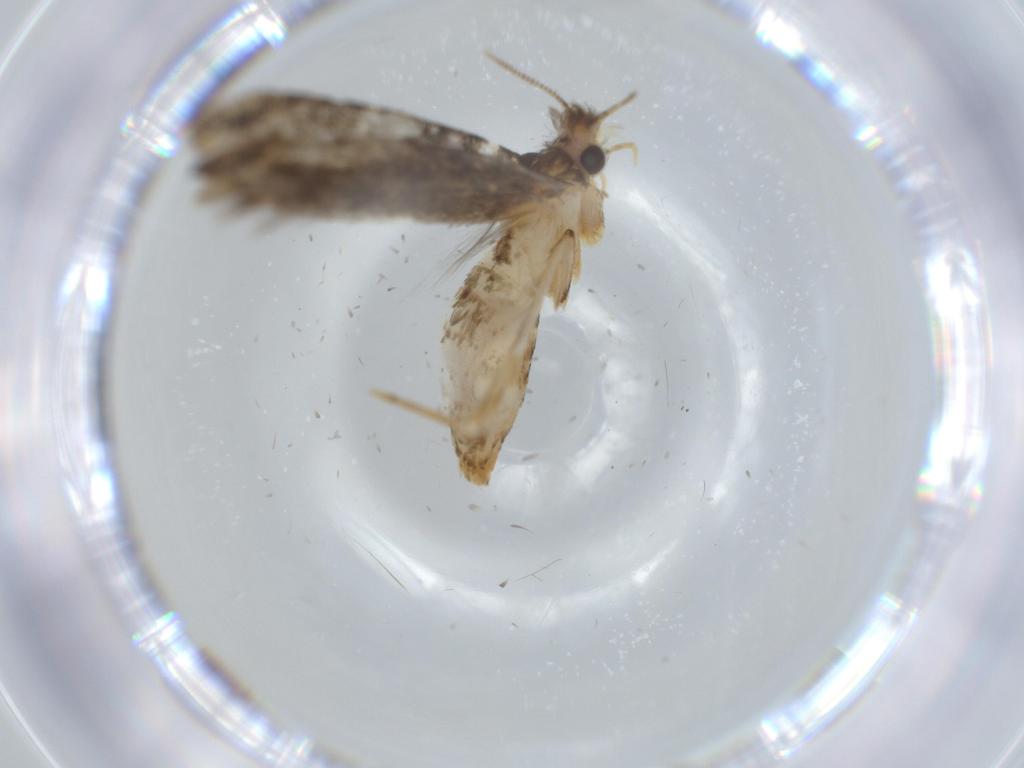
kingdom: Animalia
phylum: Arthropoda
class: Insecta
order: Lepidoptera
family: Tineidae
